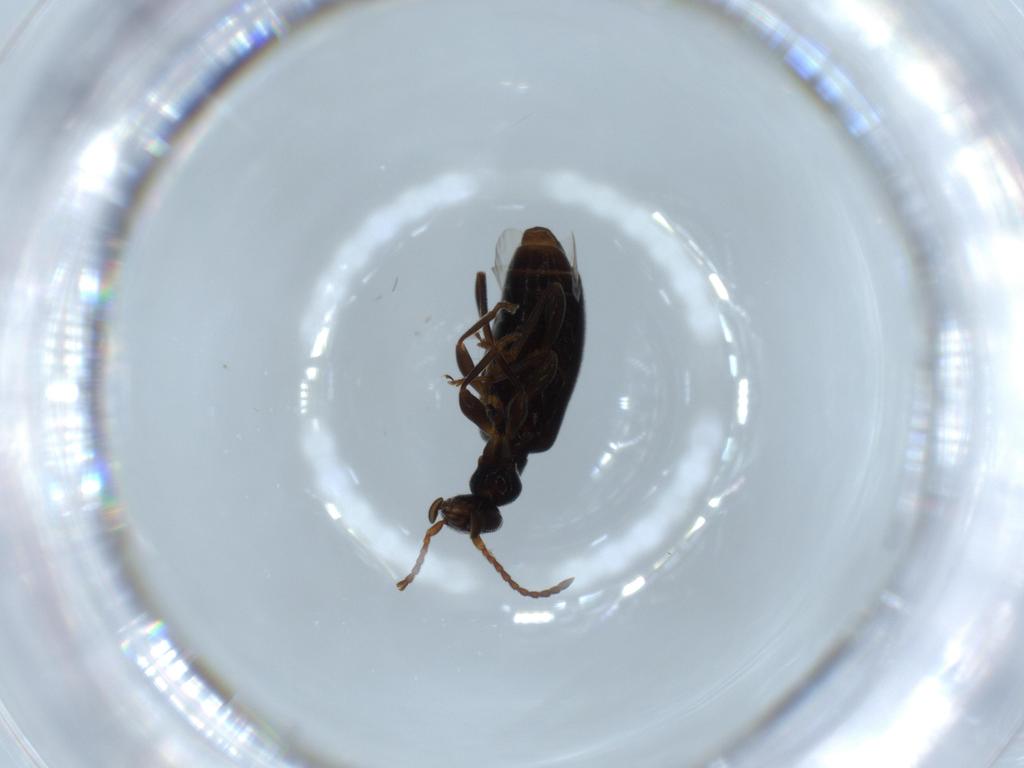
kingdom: Animalia
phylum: Arthropoda
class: Insecta
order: Coleoptera
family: Anthicidae
